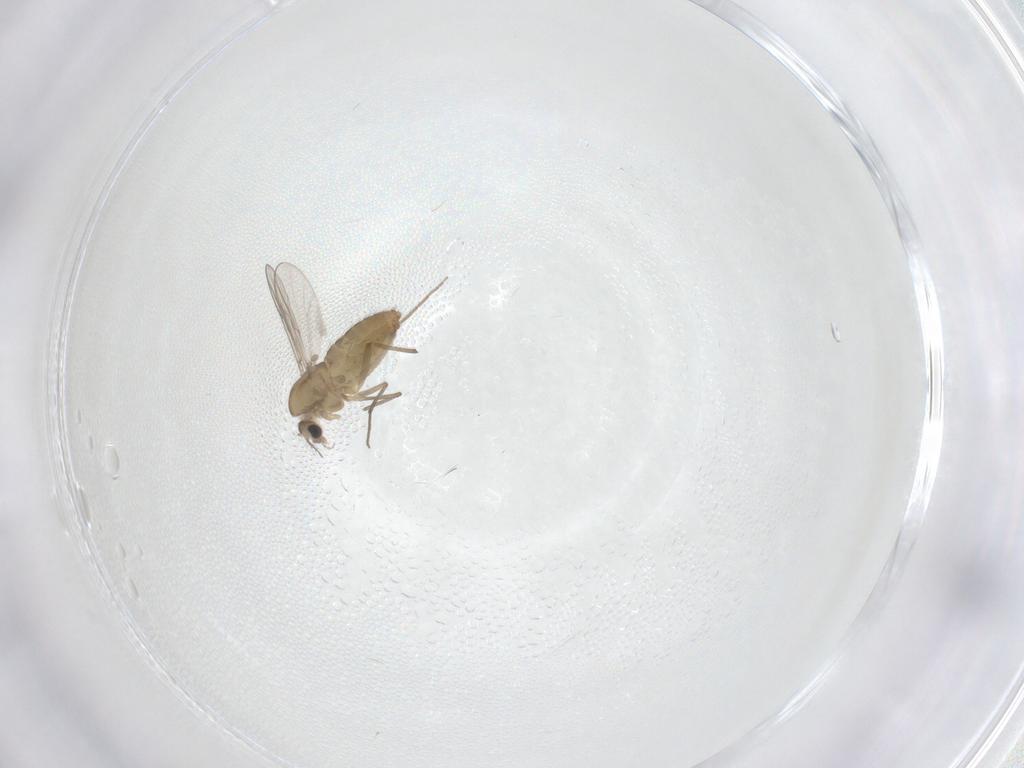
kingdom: Animalia
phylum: Arthropoda
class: Insecta
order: Diptera
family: Chironomidae
